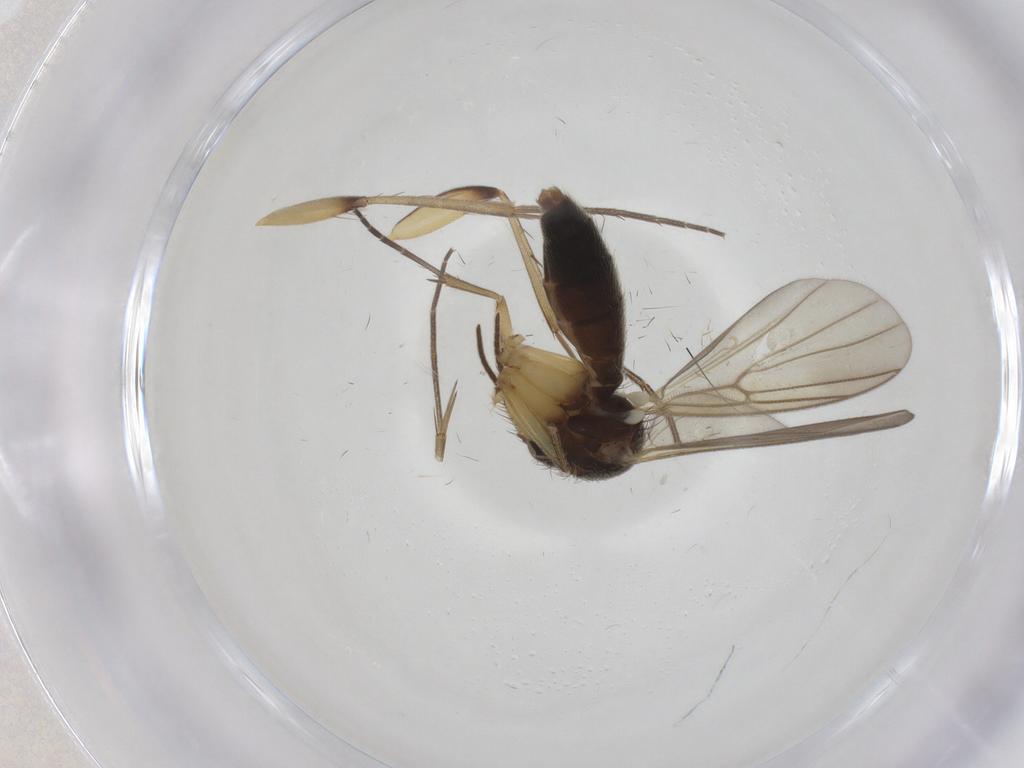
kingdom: Animalia
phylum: Arthropoda
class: Insecta
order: Diptera
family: Mycetophilidae
